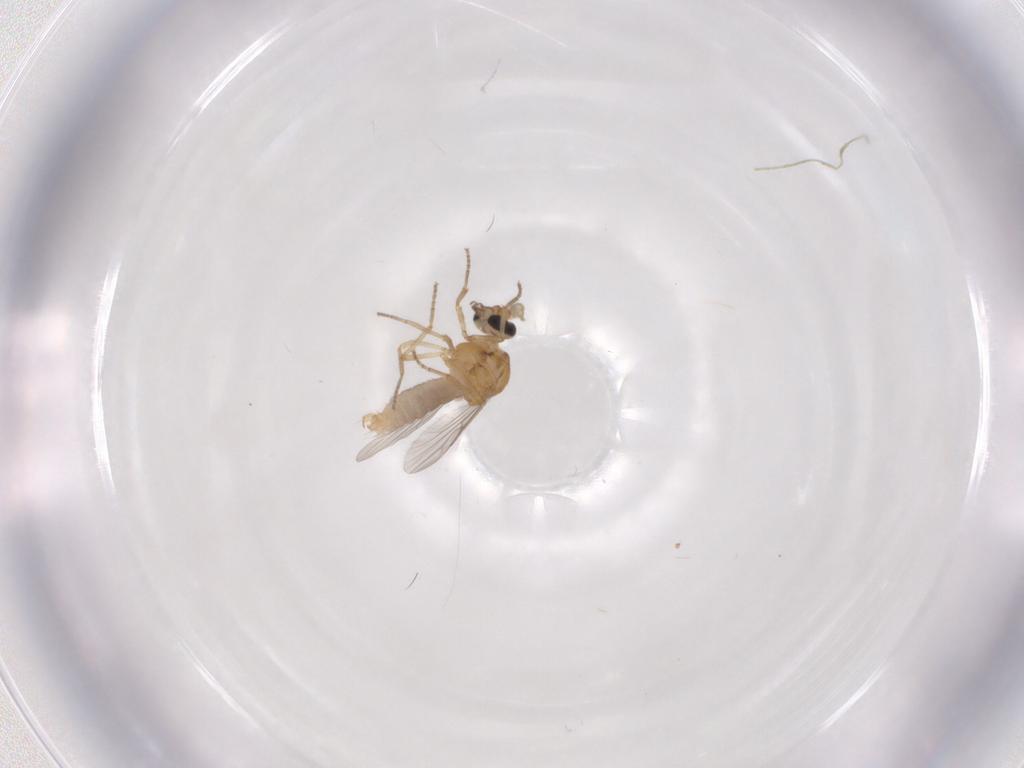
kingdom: Animalia
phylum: Arthropoda
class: Insecta
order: Diptera
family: Ceratopogonidae
